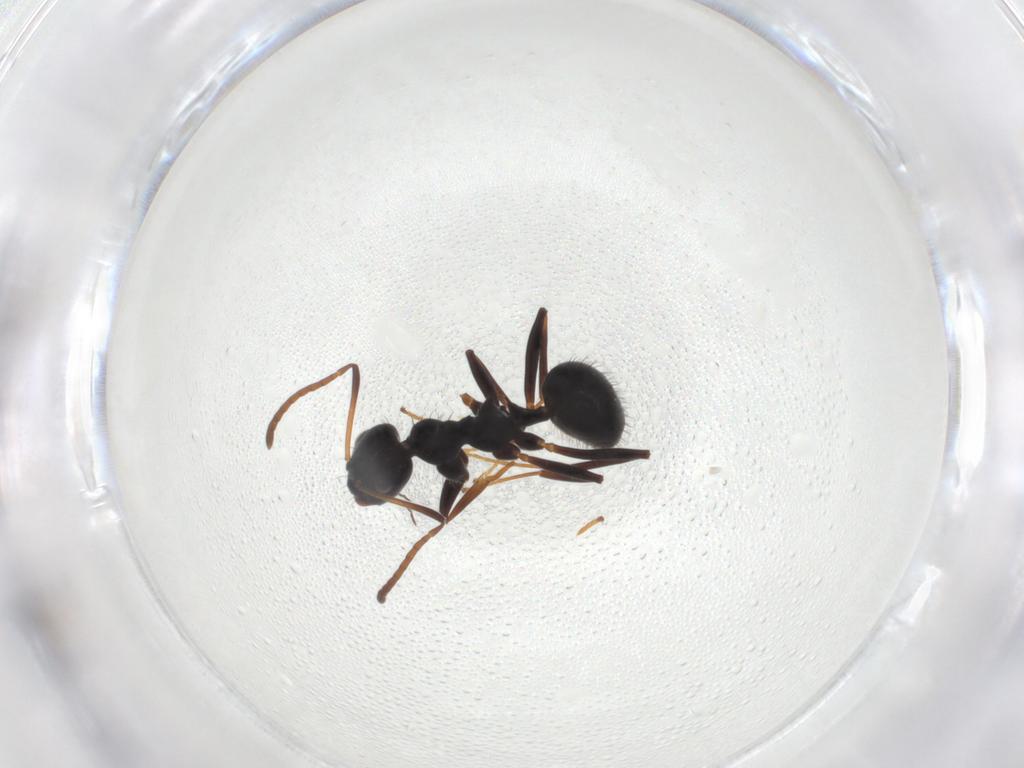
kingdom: Animalia
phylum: Arthropoda
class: Insecta
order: Hymenoptera
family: Formicidae
